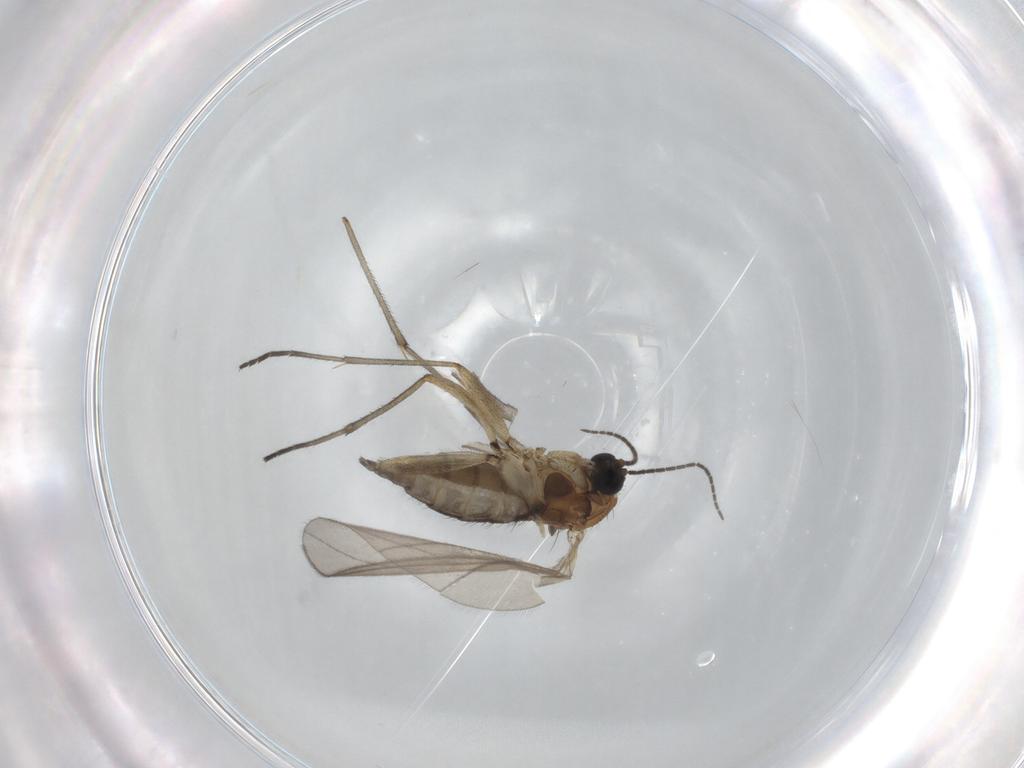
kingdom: Animalia
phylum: Arthropoda
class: Insecta
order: Diptera
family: Sciaridae
